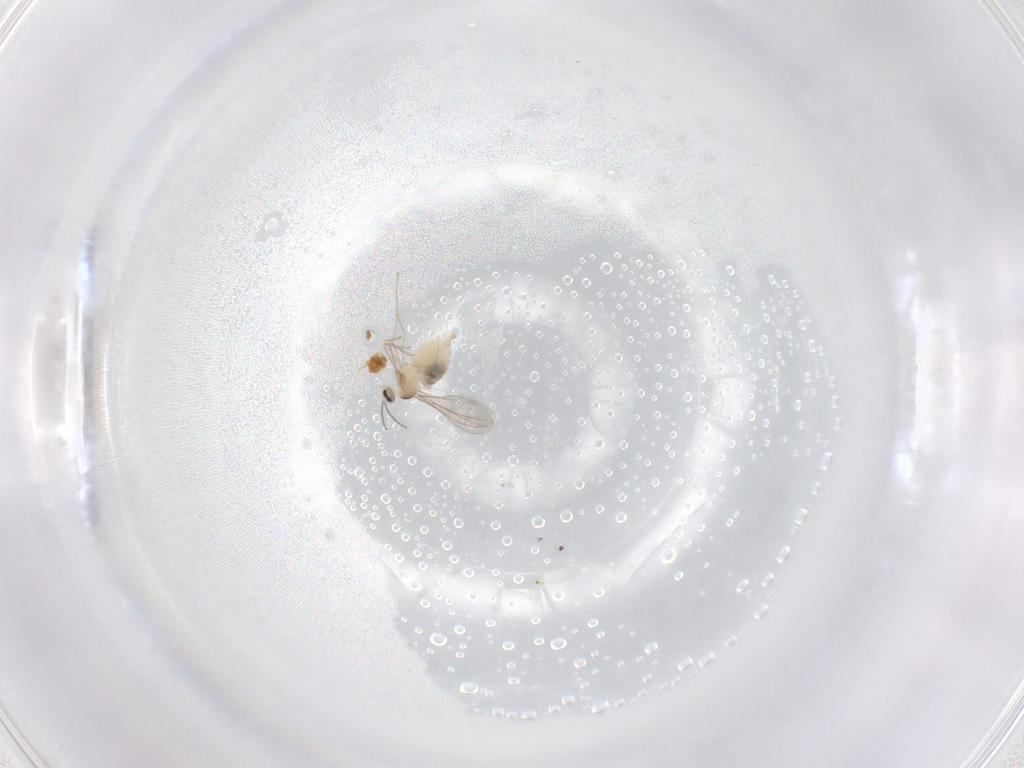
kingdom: Animalia
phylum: Arthropoda
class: Insecta
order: Diptera
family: Cecidomyiidae
